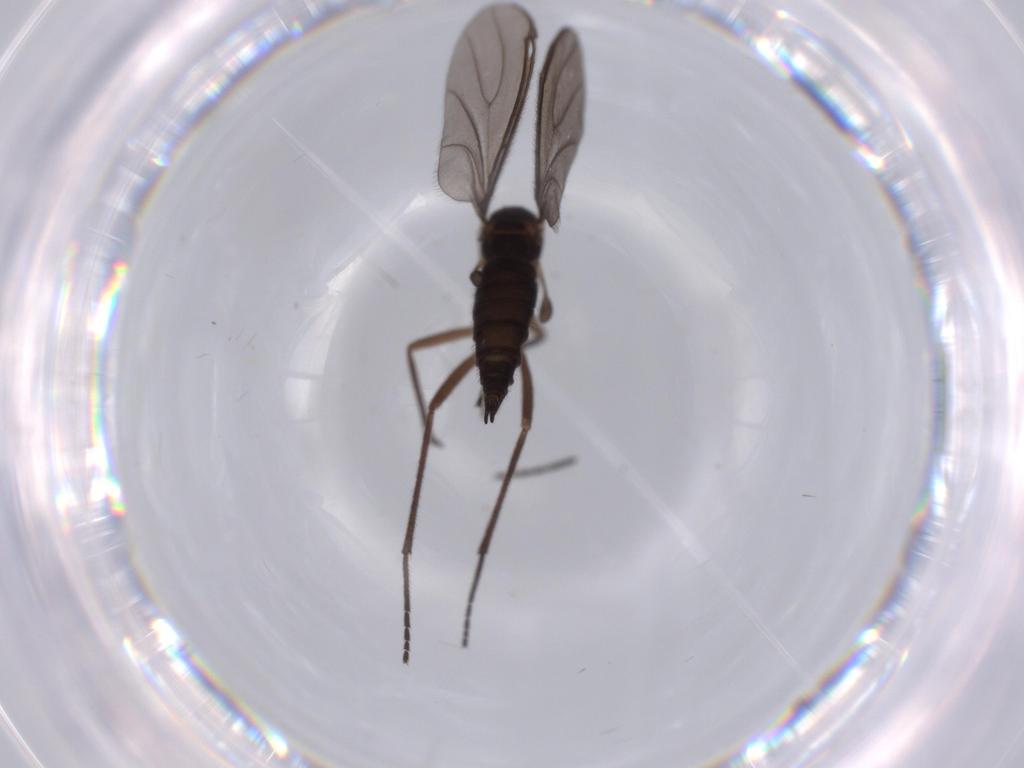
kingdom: Animalia
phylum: Arthropoda
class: Insecta
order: Diptera
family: Sciaridae
